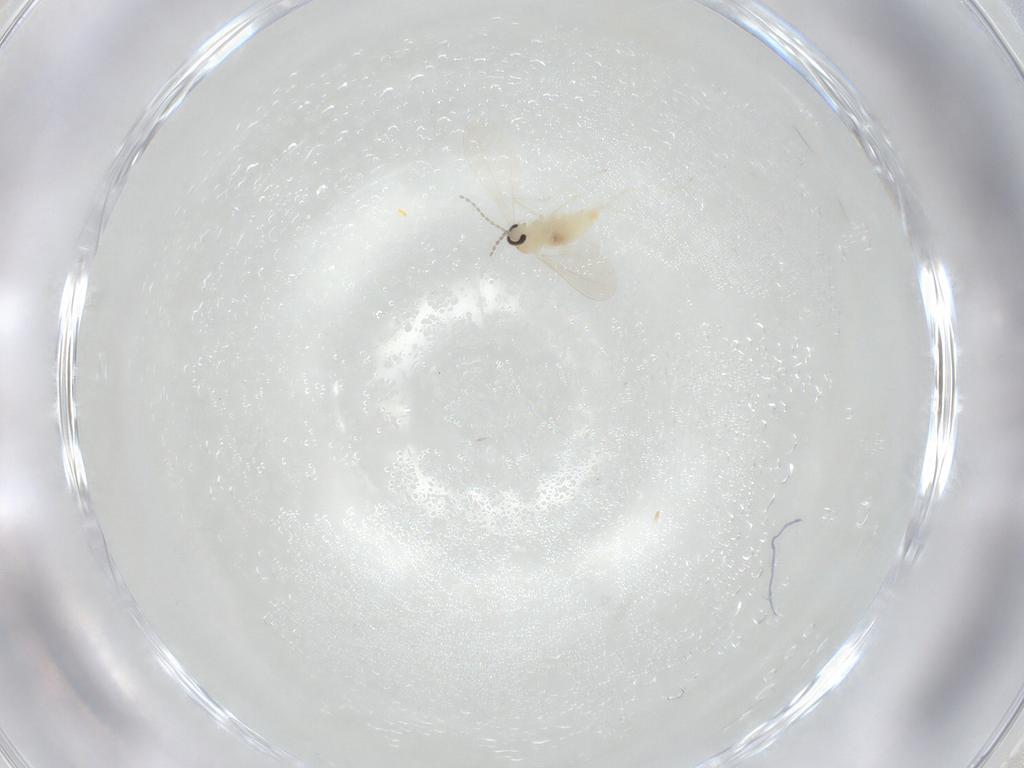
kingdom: Animalia
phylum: Arthropoda
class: Insecta
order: Diptera
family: Cecidomyiidae
